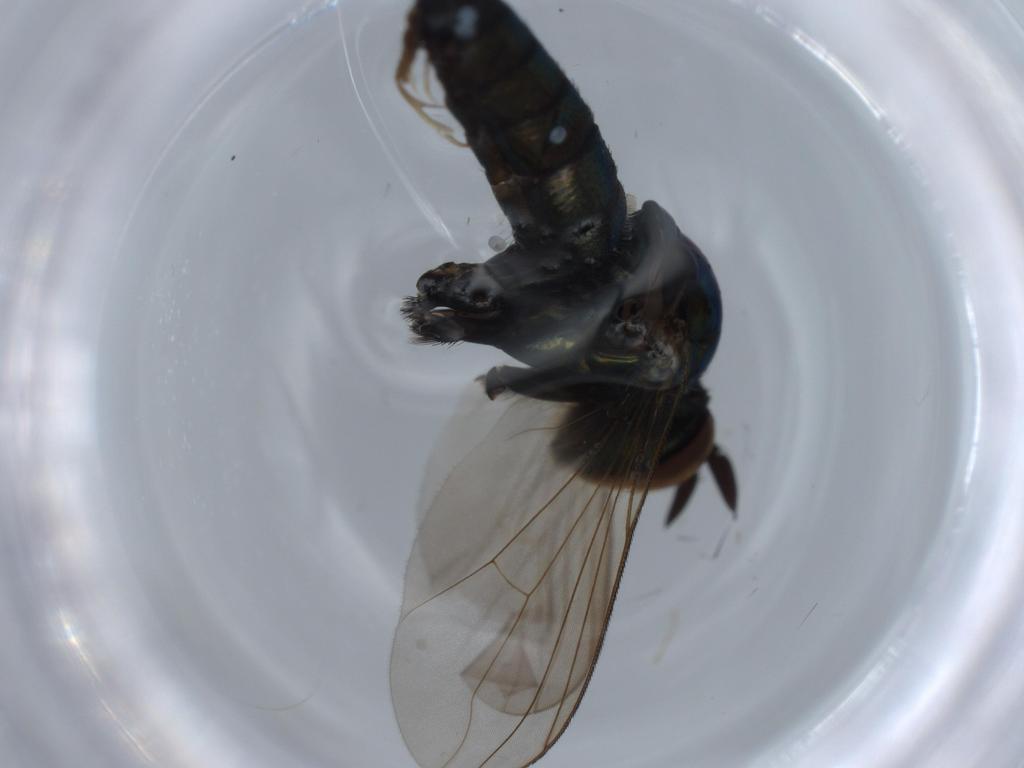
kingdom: Animalia
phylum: Arthropoda
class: Insecta
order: Diptera
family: Dolichopodidae
